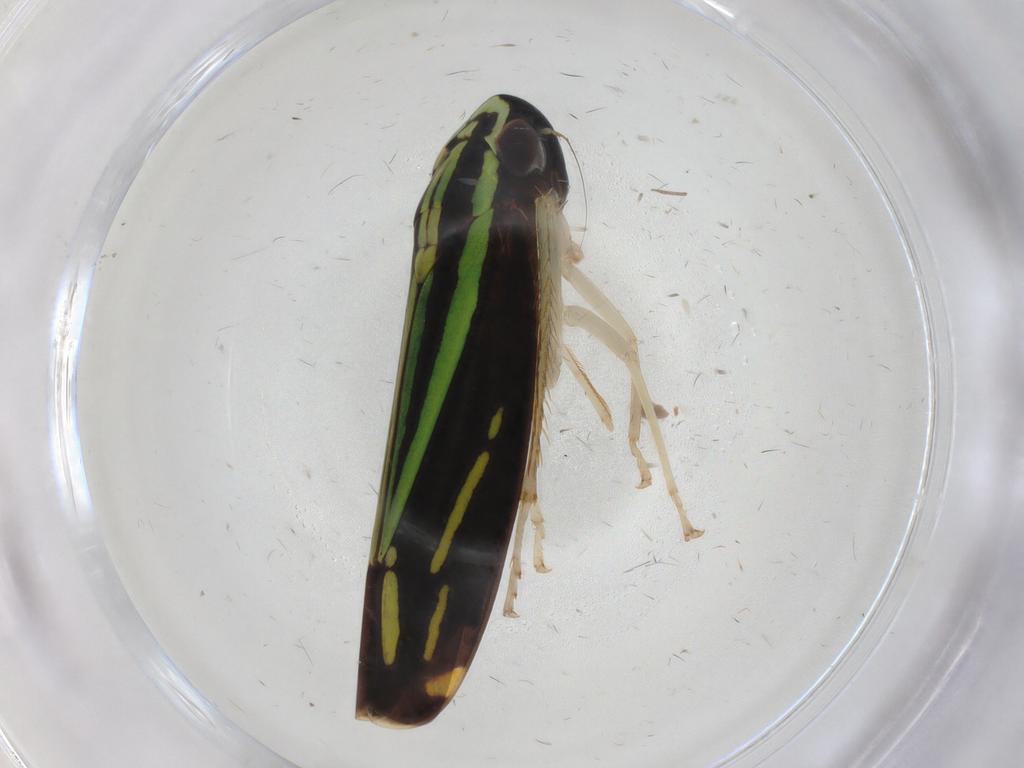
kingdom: Animalia
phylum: Arthropoda
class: Insecta
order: Hemiptera
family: Cicadellidae
